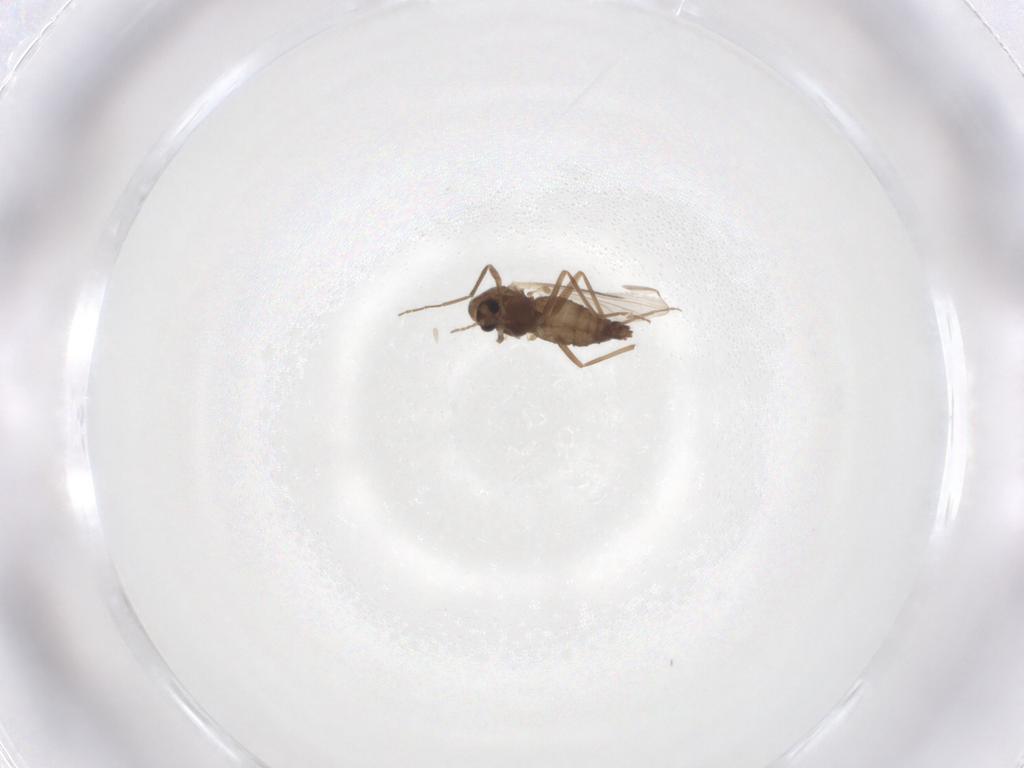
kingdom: Animalia
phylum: Arthropoda
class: Insecta
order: Diptera
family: Chironomidae
